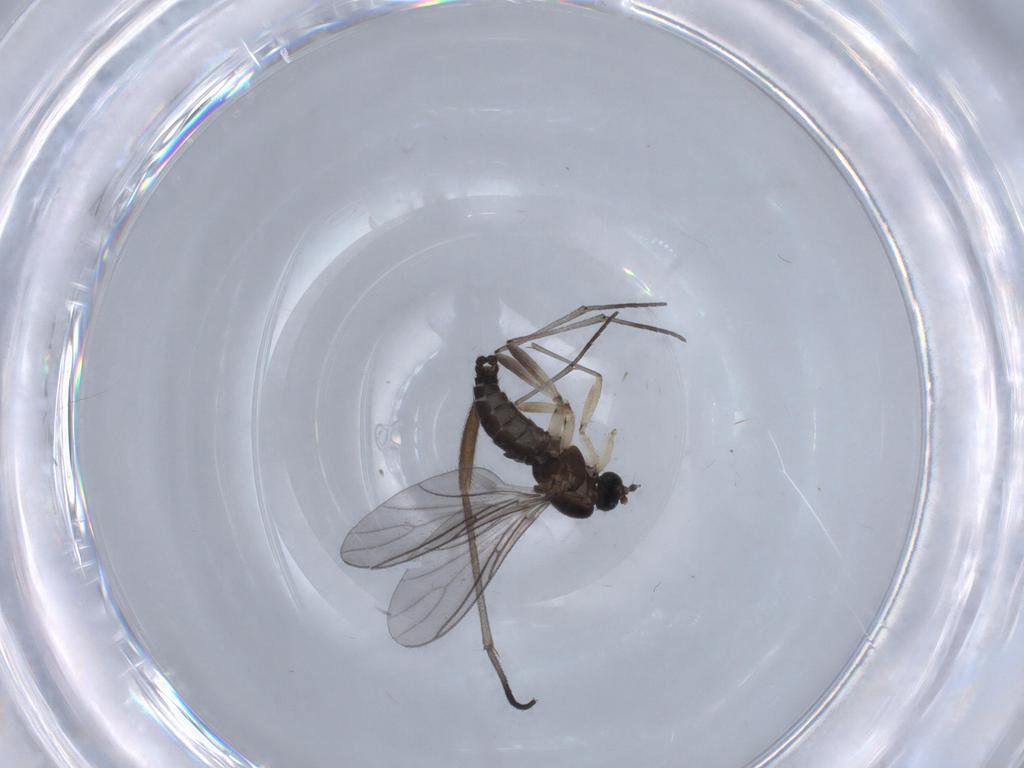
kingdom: Animalia
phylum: Arthropoda
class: Insecta
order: Diptera
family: Sciaridae
